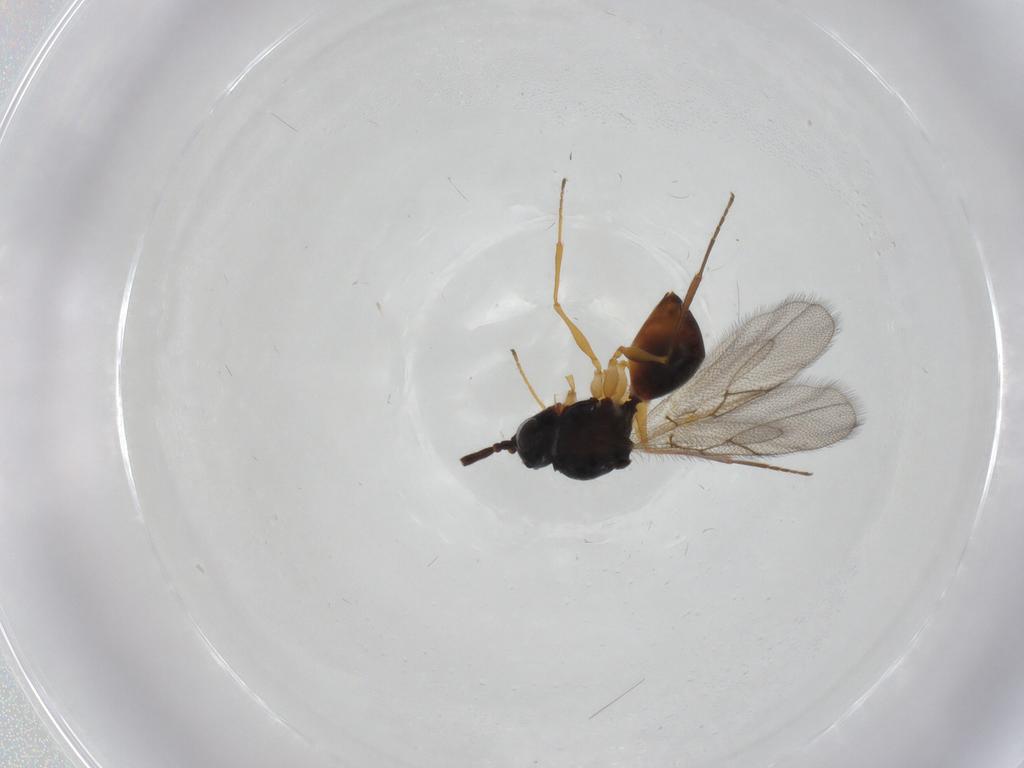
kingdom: Animalia
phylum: Arthropoda
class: Insecta
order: Hymenoptera
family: Figitidae
